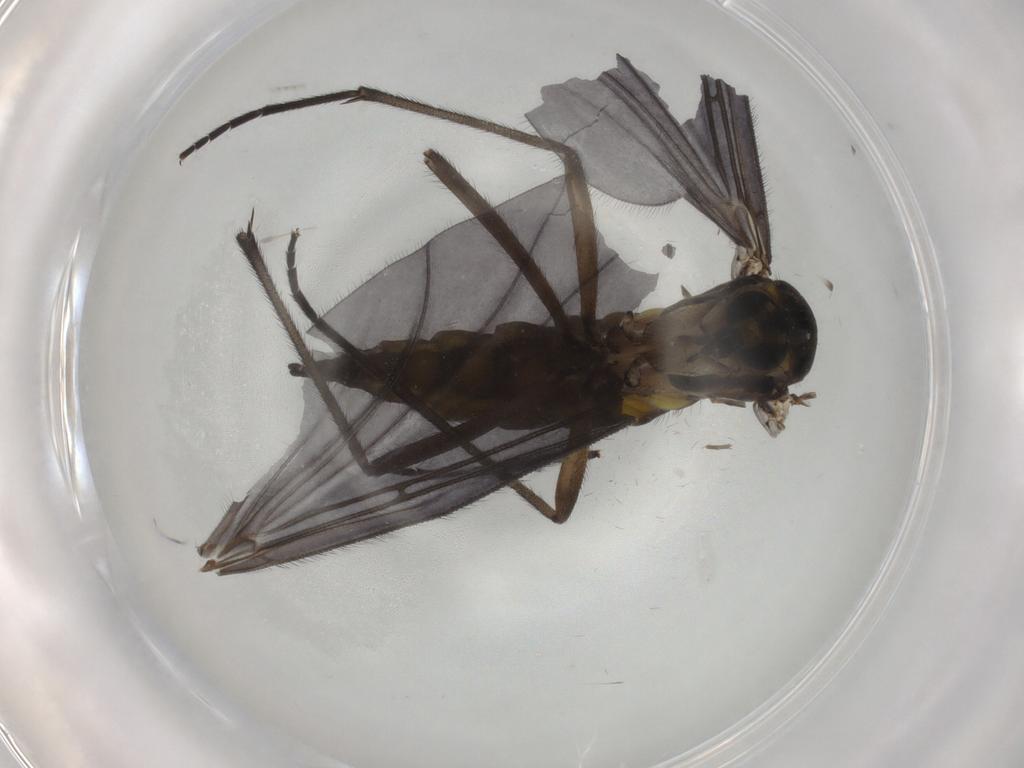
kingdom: Animalia
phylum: Arthropoda
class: Insecta
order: Diptera
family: Sciaridae
